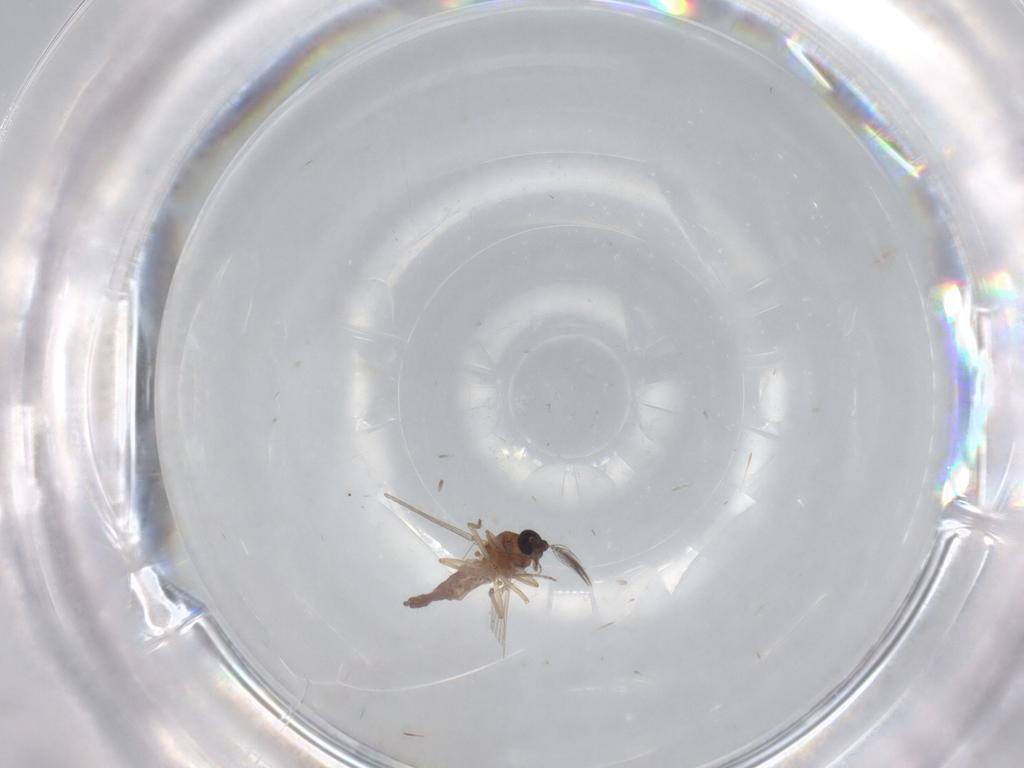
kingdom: Animalia
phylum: Arthropoda
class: Insecta
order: Diptera
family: Ceratopogonidae
